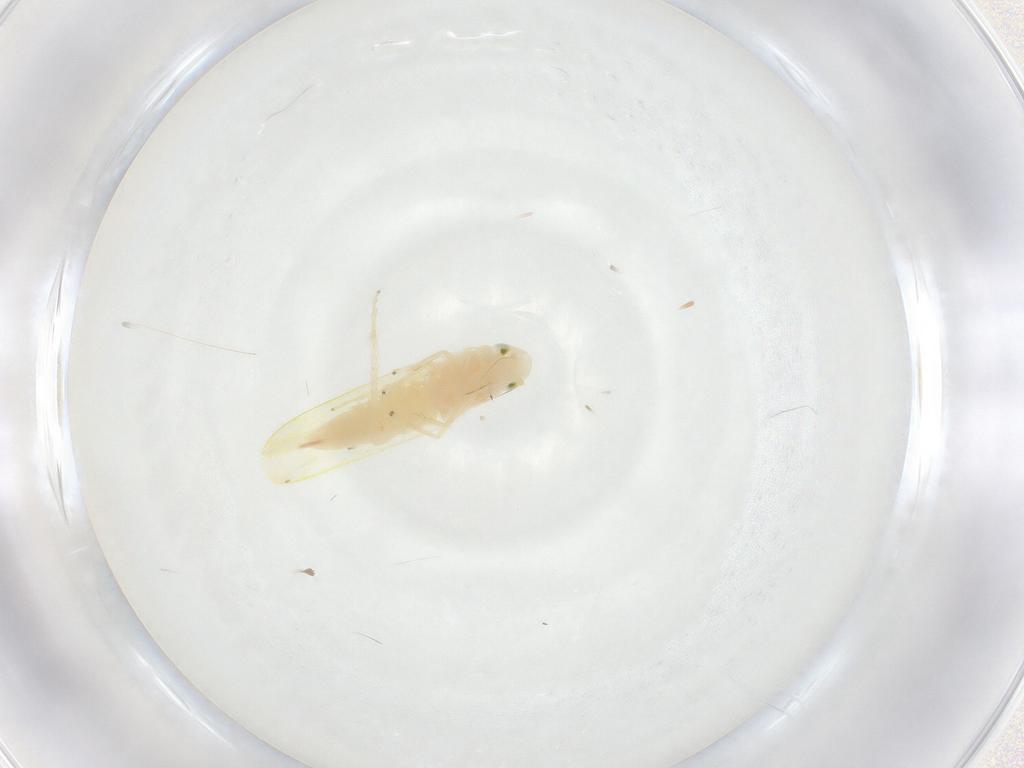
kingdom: Animalia
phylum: Arthropoda
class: Insecta
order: Hemiptera
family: Cicadellidae
